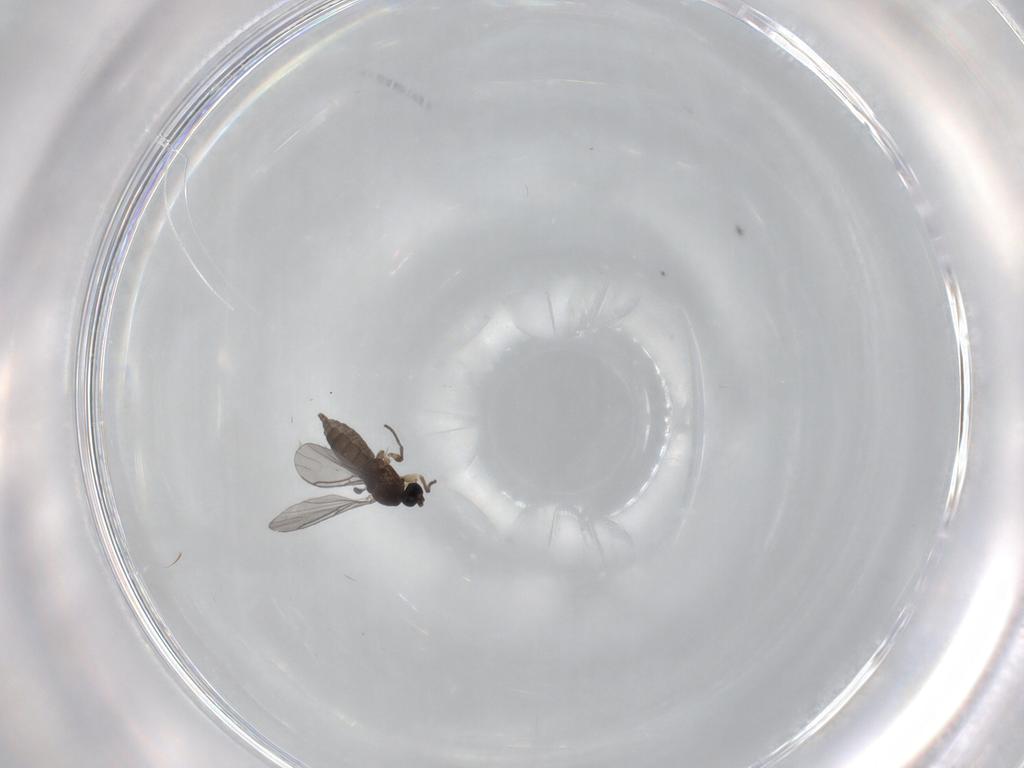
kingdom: Animalia
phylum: Arthropoda
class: Insecta
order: Diptera
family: Sciaridae
